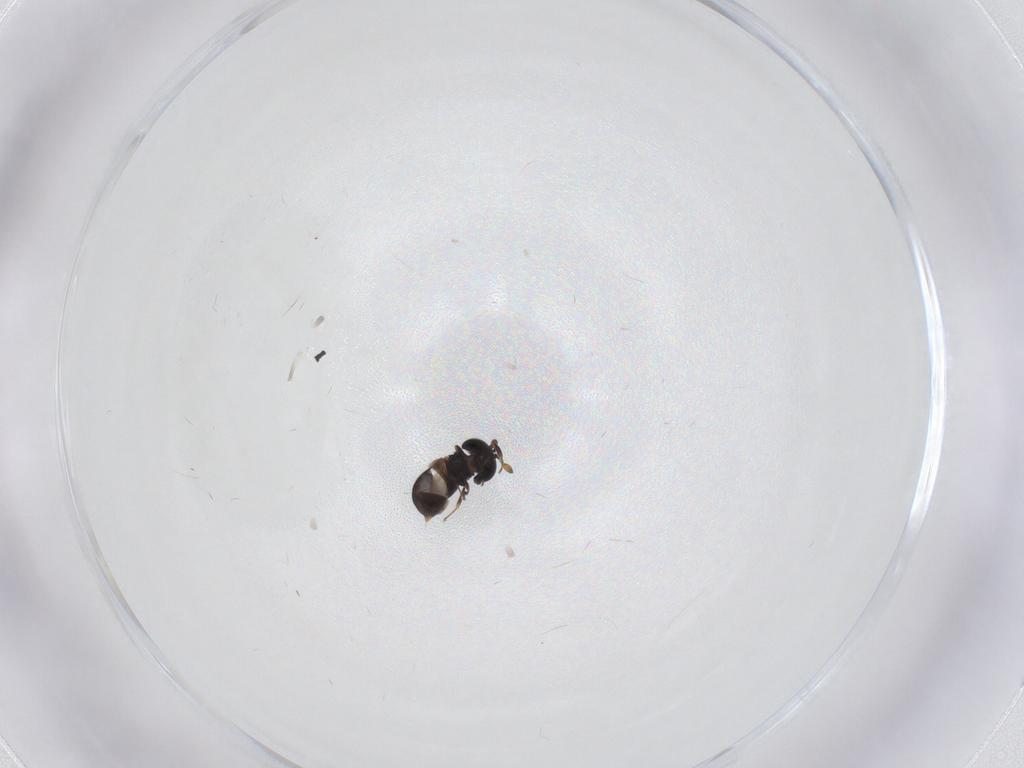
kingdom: Animalia
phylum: Arthropoda
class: Insecta
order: Hymenoptera
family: Scelionidae
